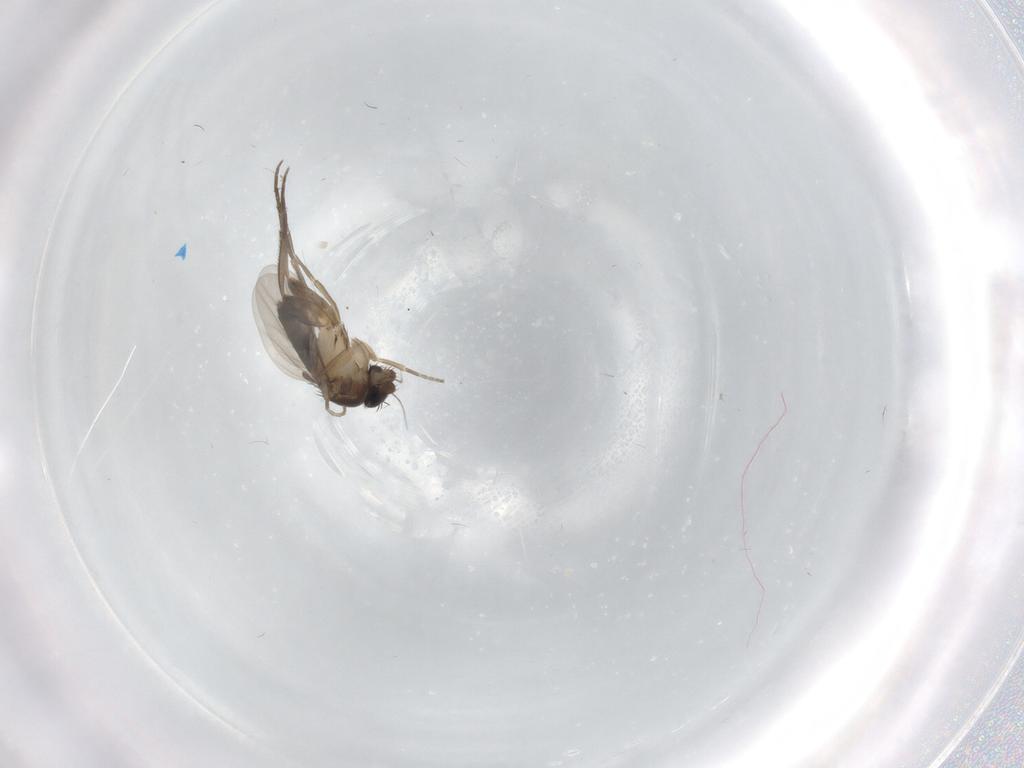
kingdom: Animalia
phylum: Arthropoda
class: Insecta
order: Diptera
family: Phoridae
